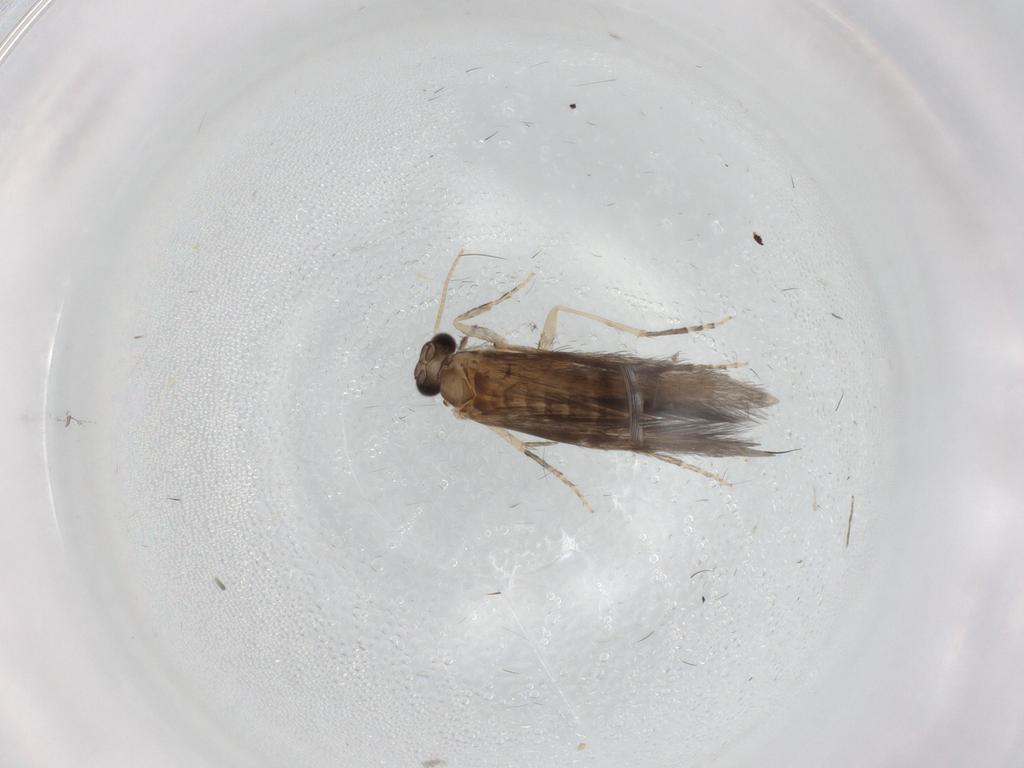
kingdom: Animalia
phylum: Arthropoda
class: Insecta
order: Trichoptera
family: Hydroptilidae
